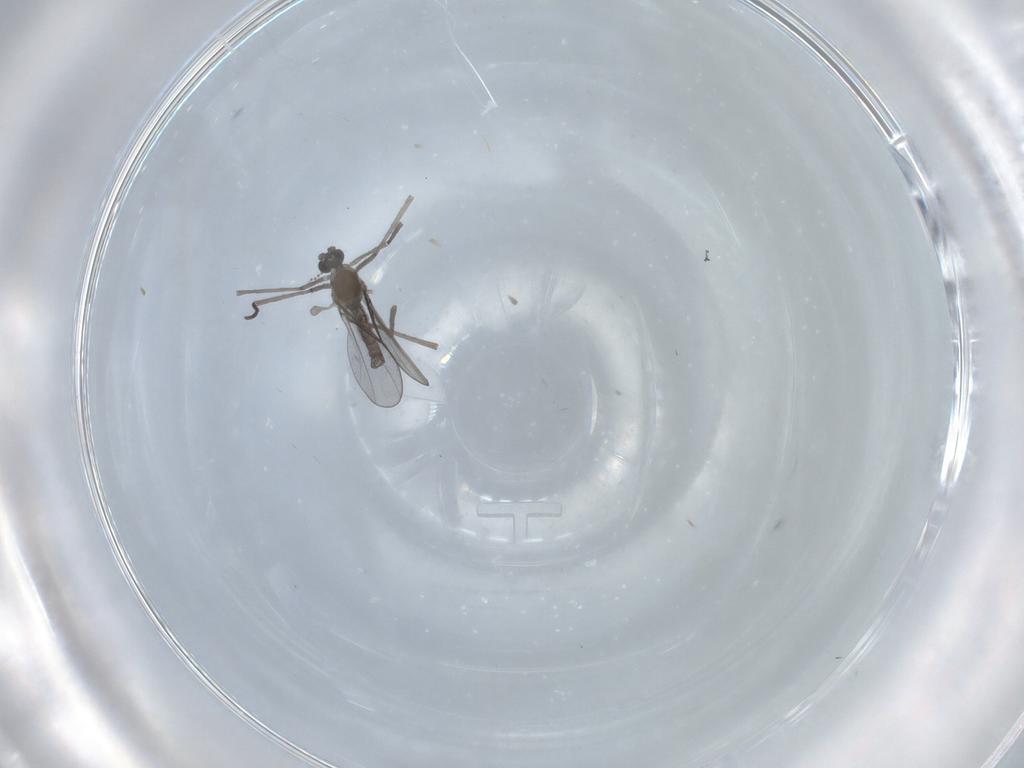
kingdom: Animalia
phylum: Arthropoda
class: Insecta
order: Diptera
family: Cecidomyiidae
